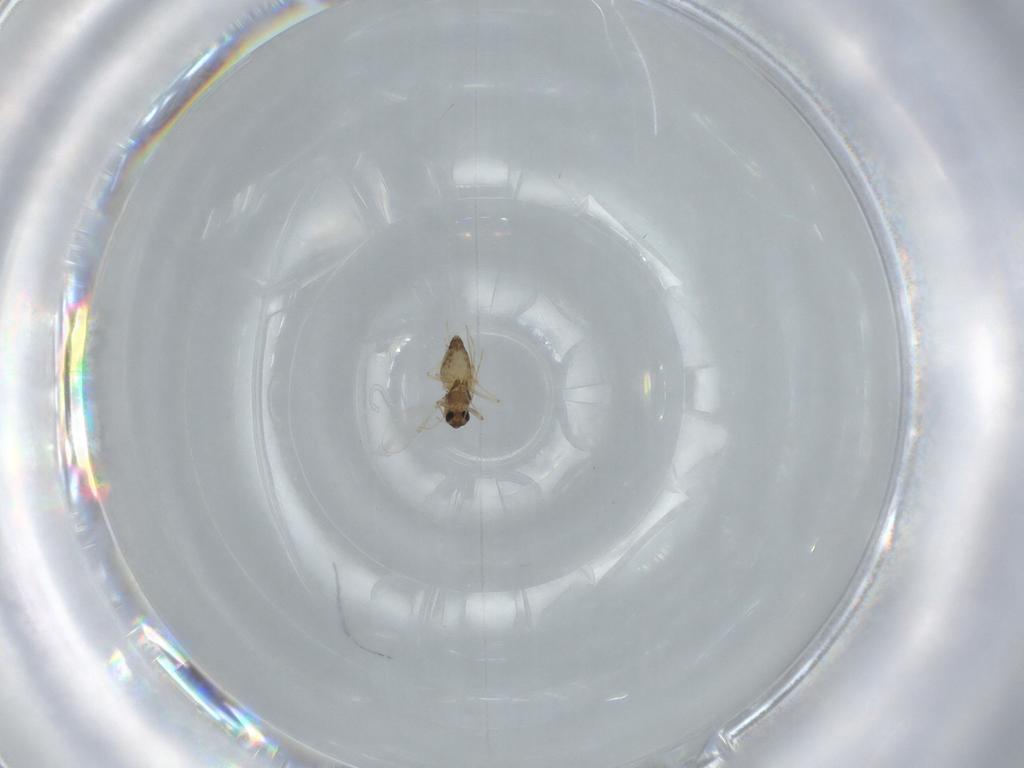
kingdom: Animalia
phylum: Arthropoda
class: Insecta
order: Diptera
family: Chironomidae
